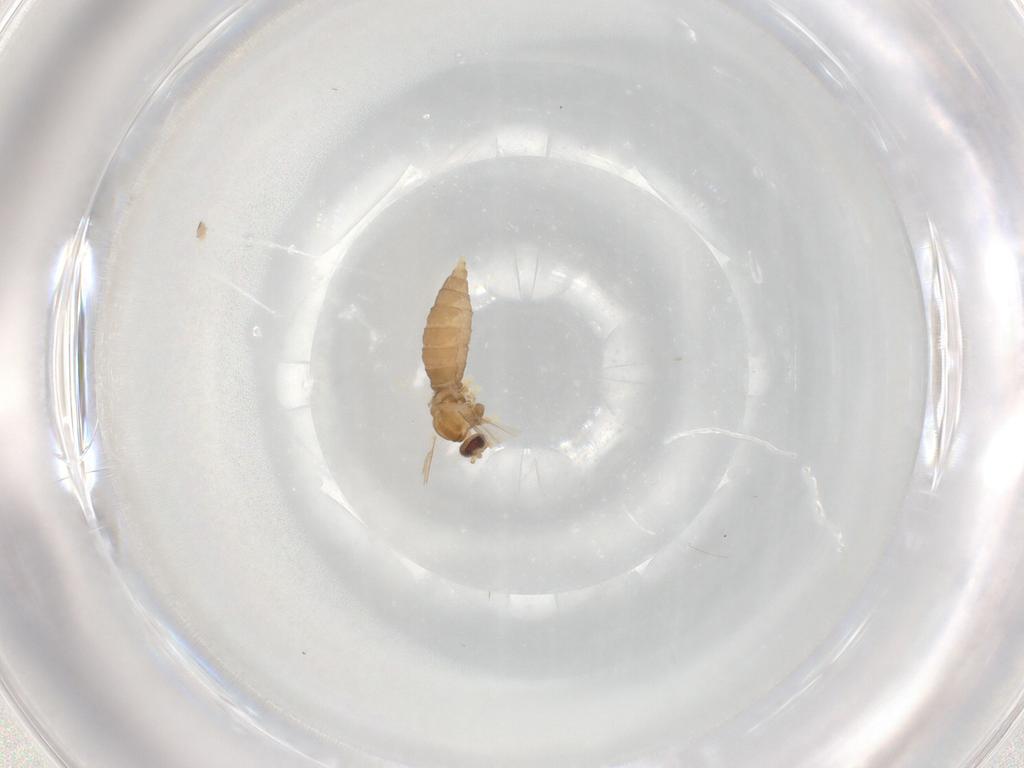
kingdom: Animalia
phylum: Arthropoda
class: Insecta
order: Diptera
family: Cecidomyiidae
